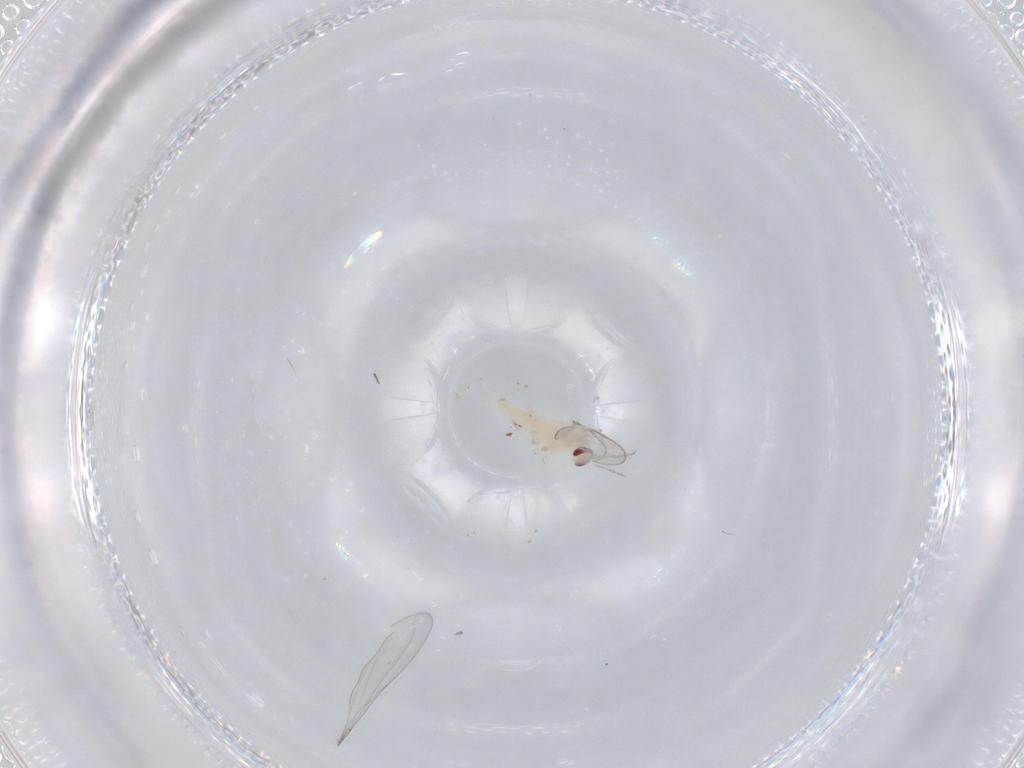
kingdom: Animalia
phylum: Arthropoda
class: Insecta
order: Diptera
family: Cecidomyiidae
